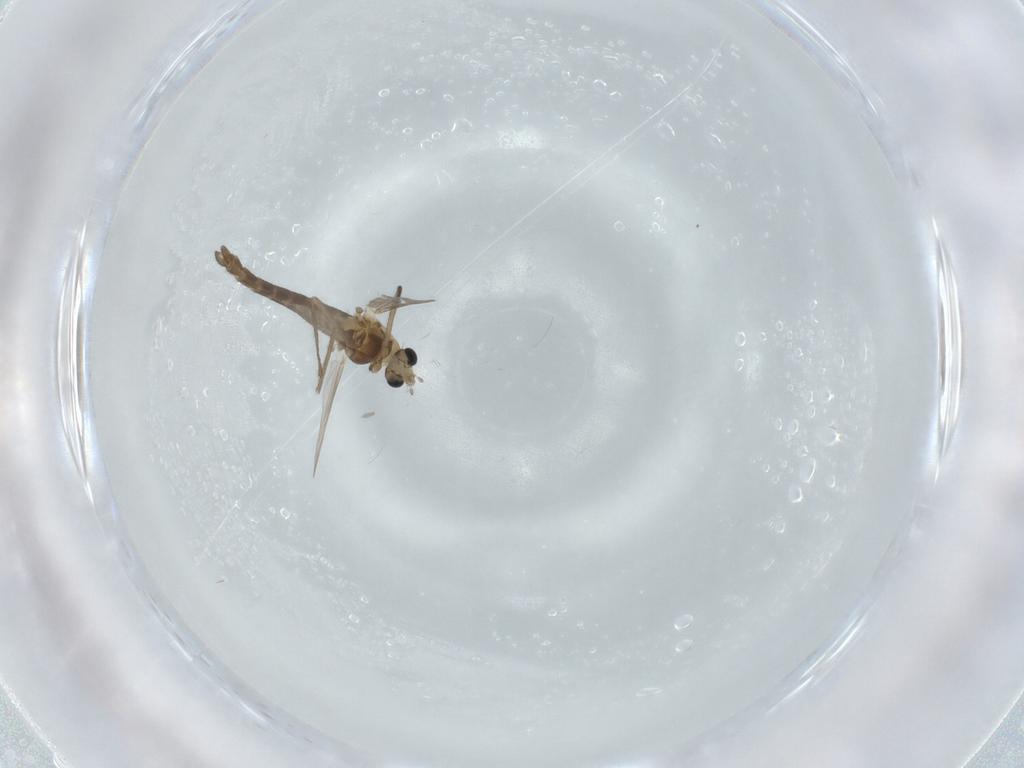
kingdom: Animalia
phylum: Arthropoda
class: Insecta
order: Diptera
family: Chironomidae
